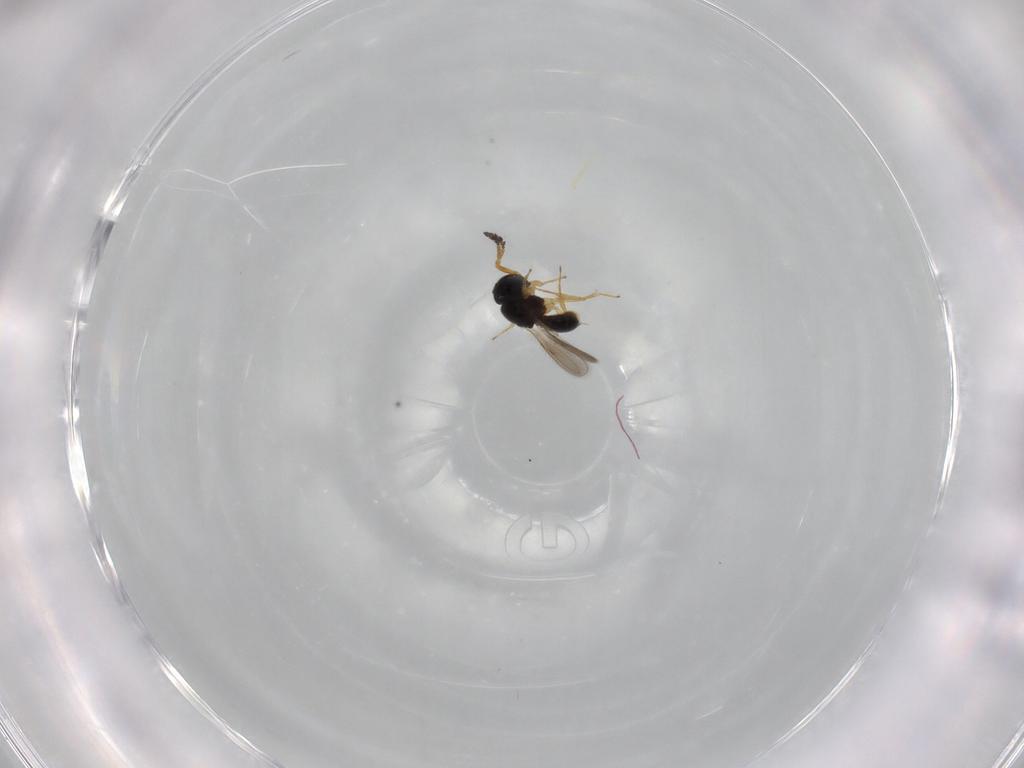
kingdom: Animalia
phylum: Arthropoda
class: Insecta
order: Hymenoptera
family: Scelionidae
